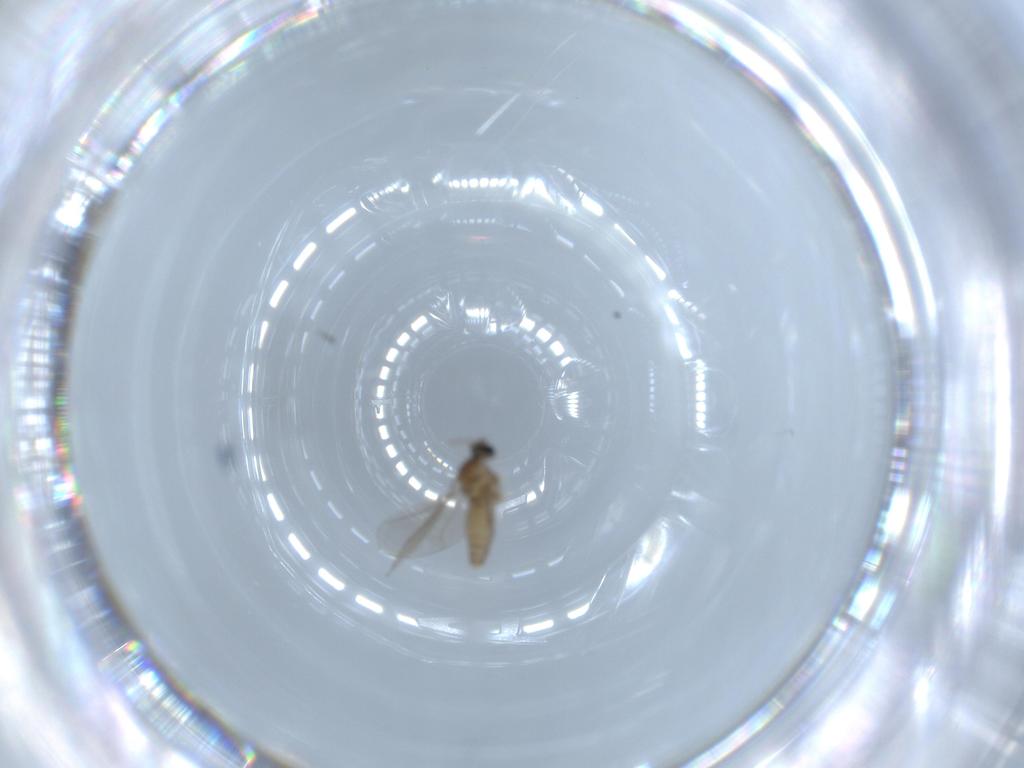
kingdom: Animalia
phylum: Arthropoda
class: Insecta
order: Diptera
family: Cecidomyiidae
